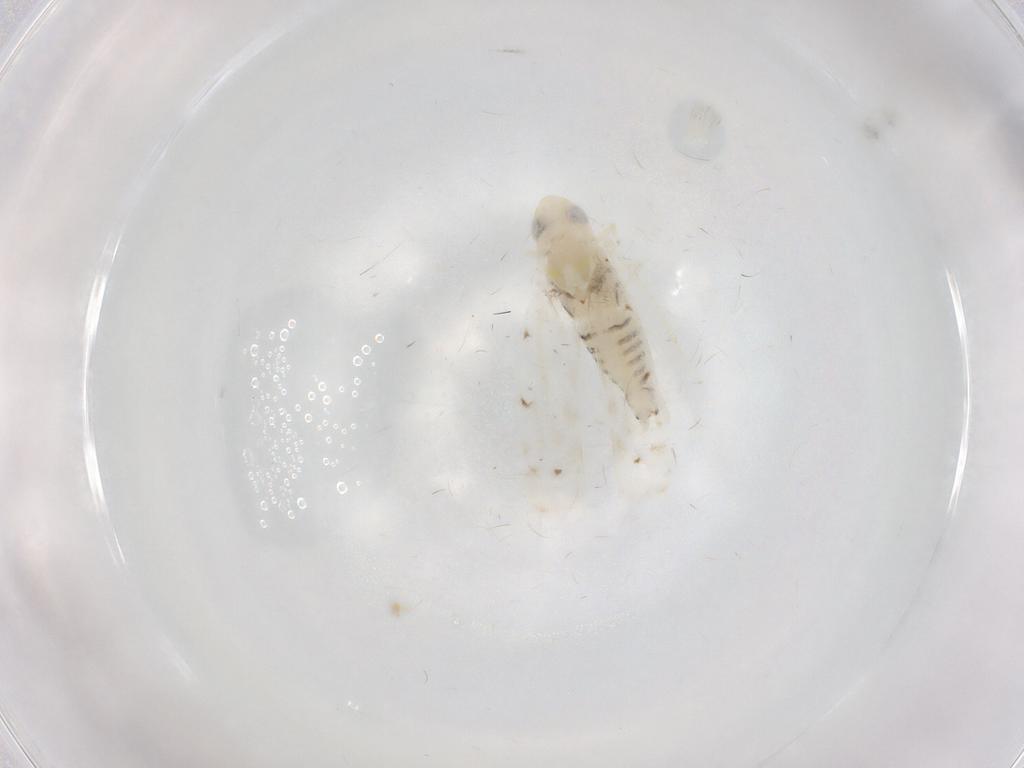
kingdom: Animalia
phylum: Arthropoda
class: Insecta
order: Hemiptera
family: Cicadellidae
